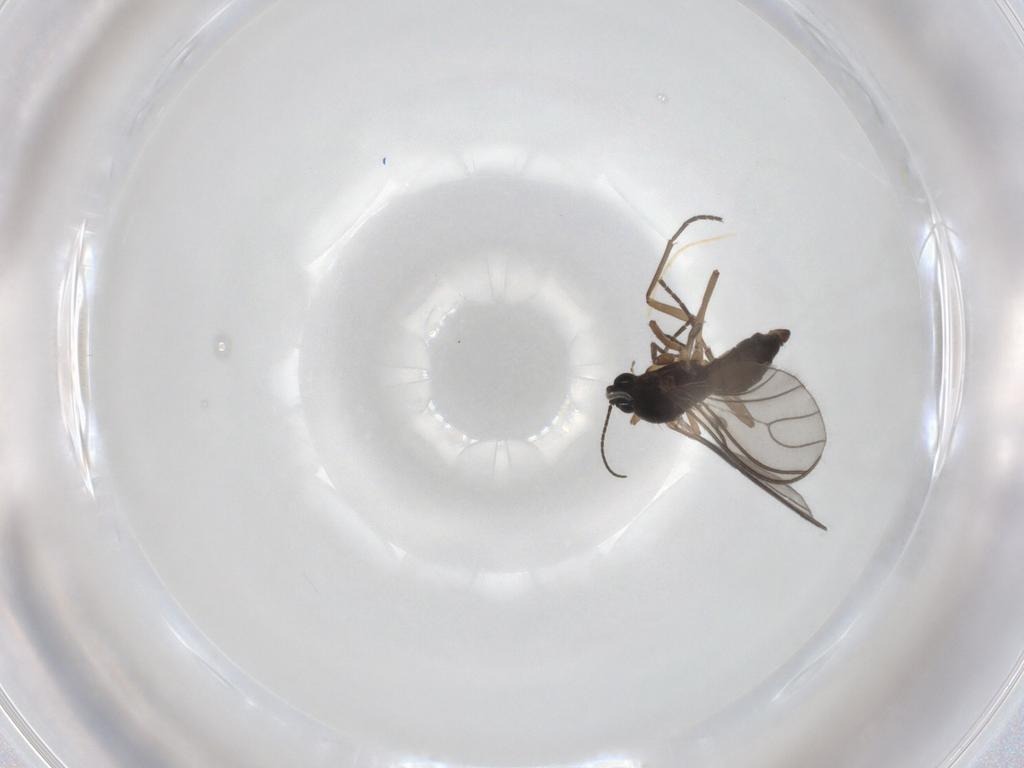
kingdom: Animalia
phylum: Arthropoda
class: Insecta
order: Diptera
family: Sciaridae
